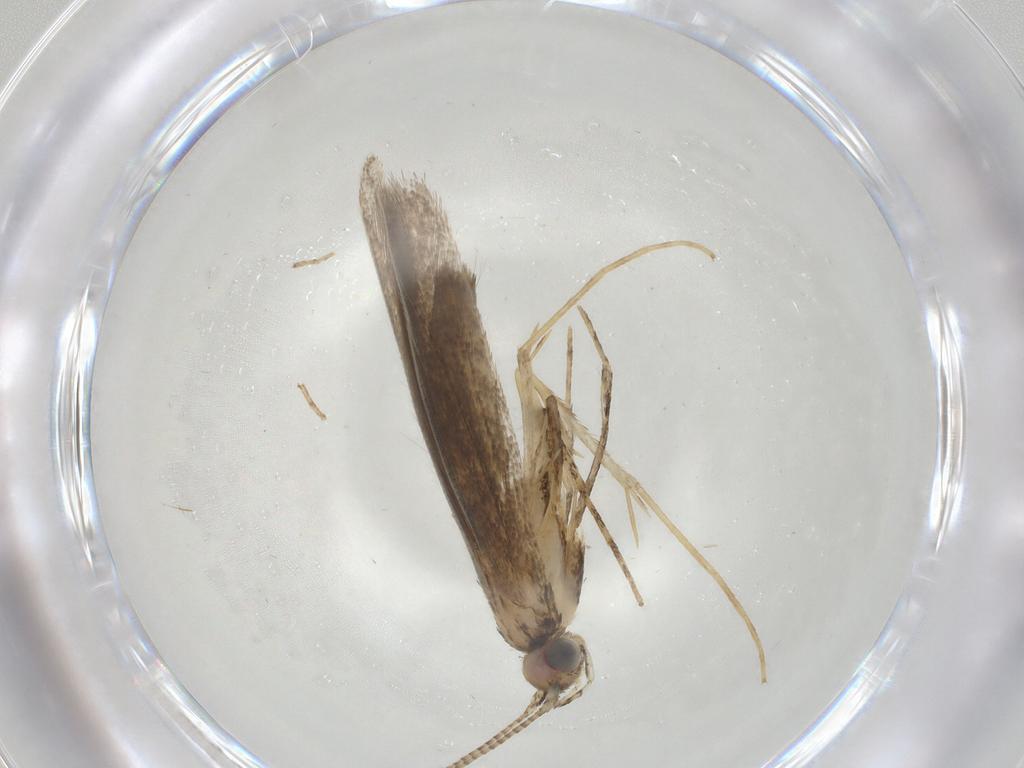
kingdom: Animalia
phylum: Arthropoda
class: Insecta
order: Lepidoptera
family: Gracillariidae
